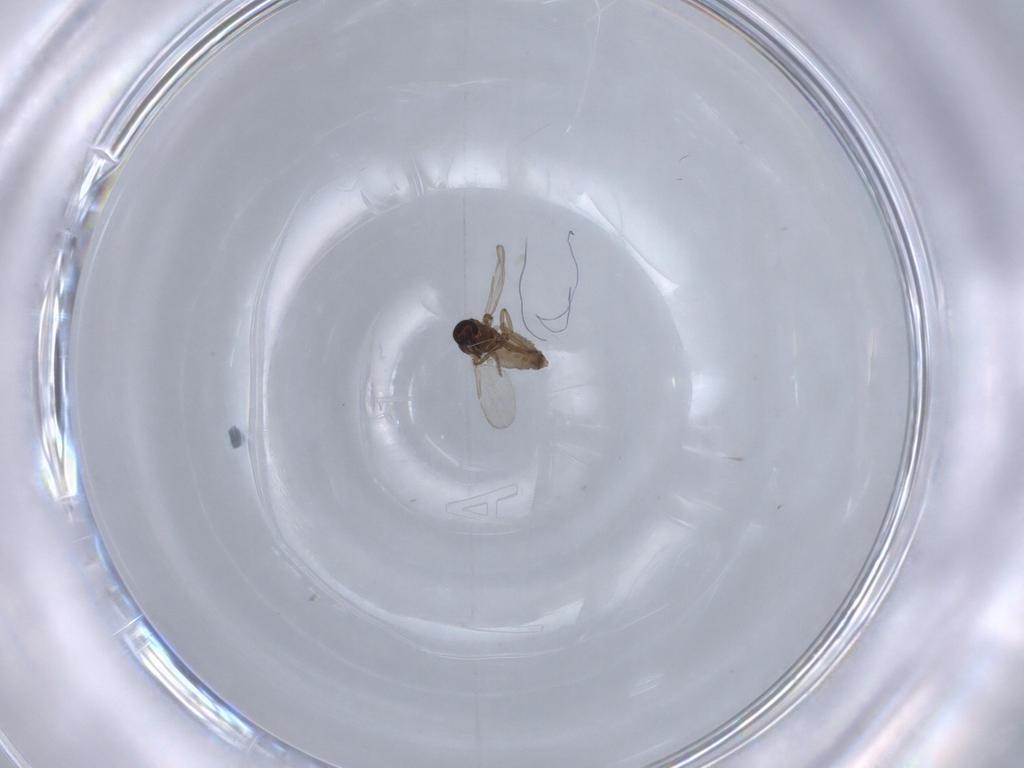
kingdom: Animalia
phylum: Arthropoda
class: Insecta
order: Diptera
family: Ceratopogonidae
